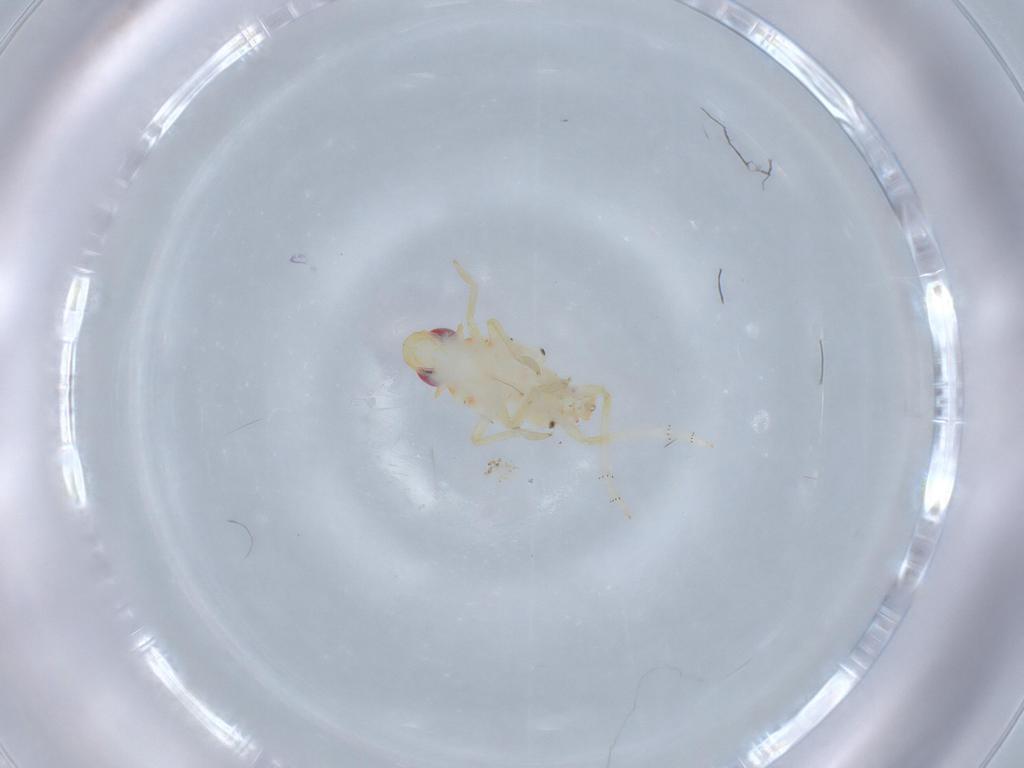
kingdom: Animalia
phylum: Arthropoda
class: Insecta
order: Hemiptera
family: Tropiduchidae
